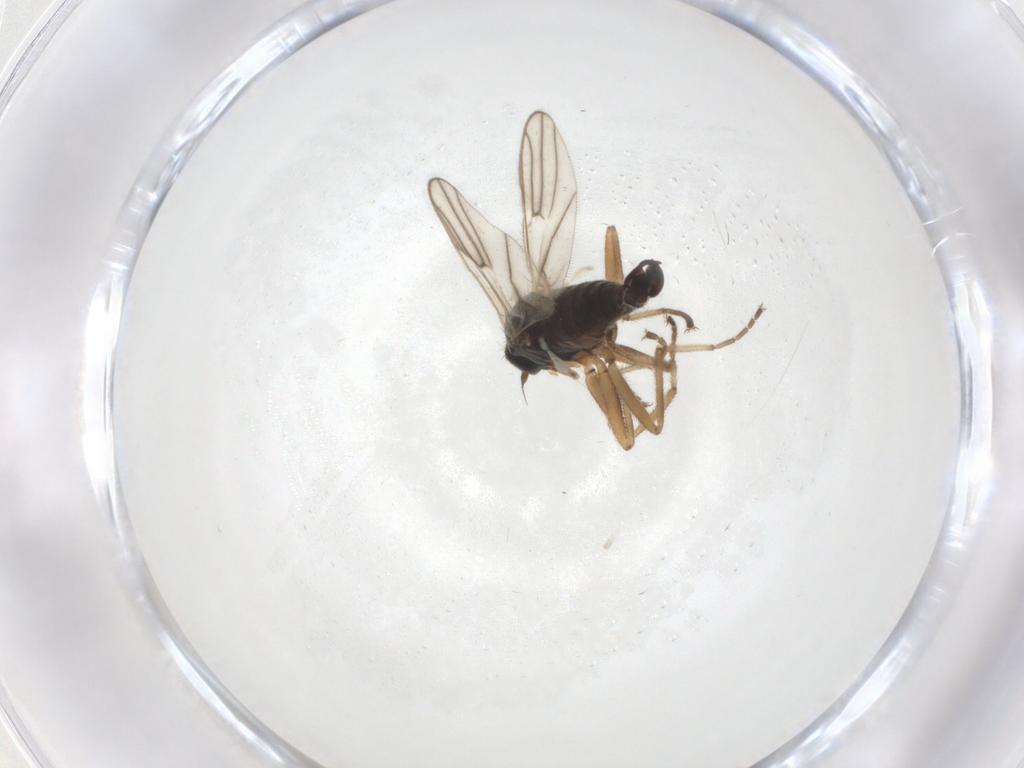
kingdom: Animalia
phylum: Arthropoda
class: Insecta
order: Diptera
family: Hybotidae
